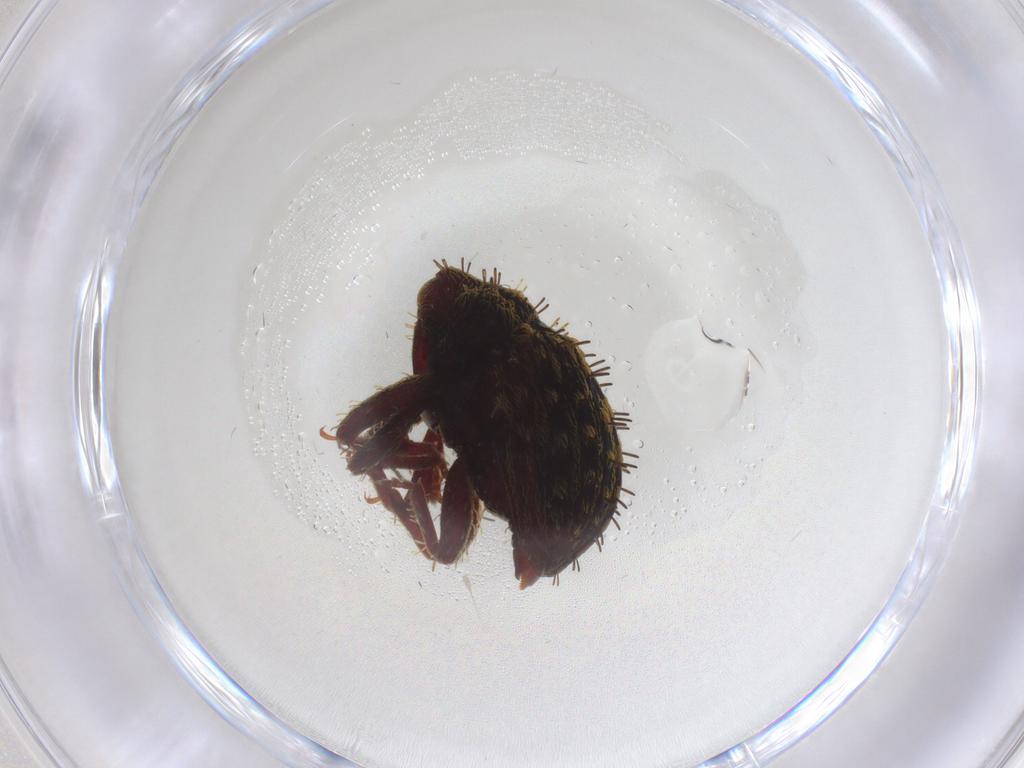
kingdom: Animalia
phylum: Arthropoda
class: Insecta
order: Coleoptera
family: Curculionidae
